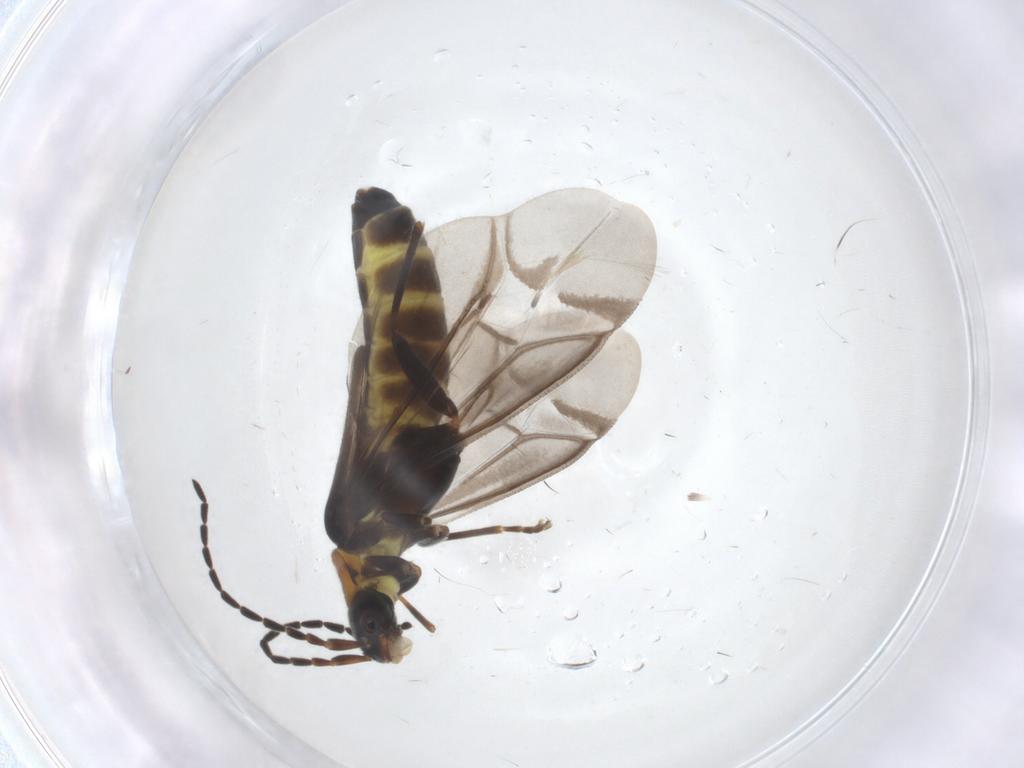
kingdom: Animalia
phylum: Arthropoda
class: Insecta
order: Coleoptera
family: Cantharidae
